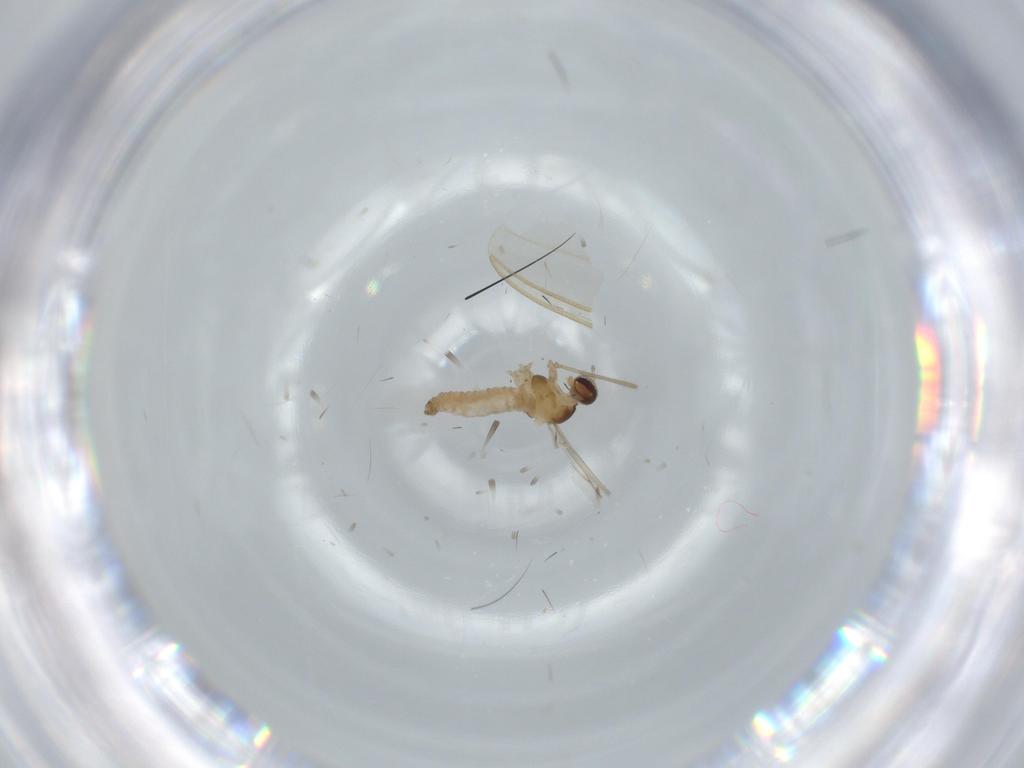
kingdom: Animalia
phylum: Arthropoda
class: Insecta
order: Diptera
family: Cecidomyiidae
